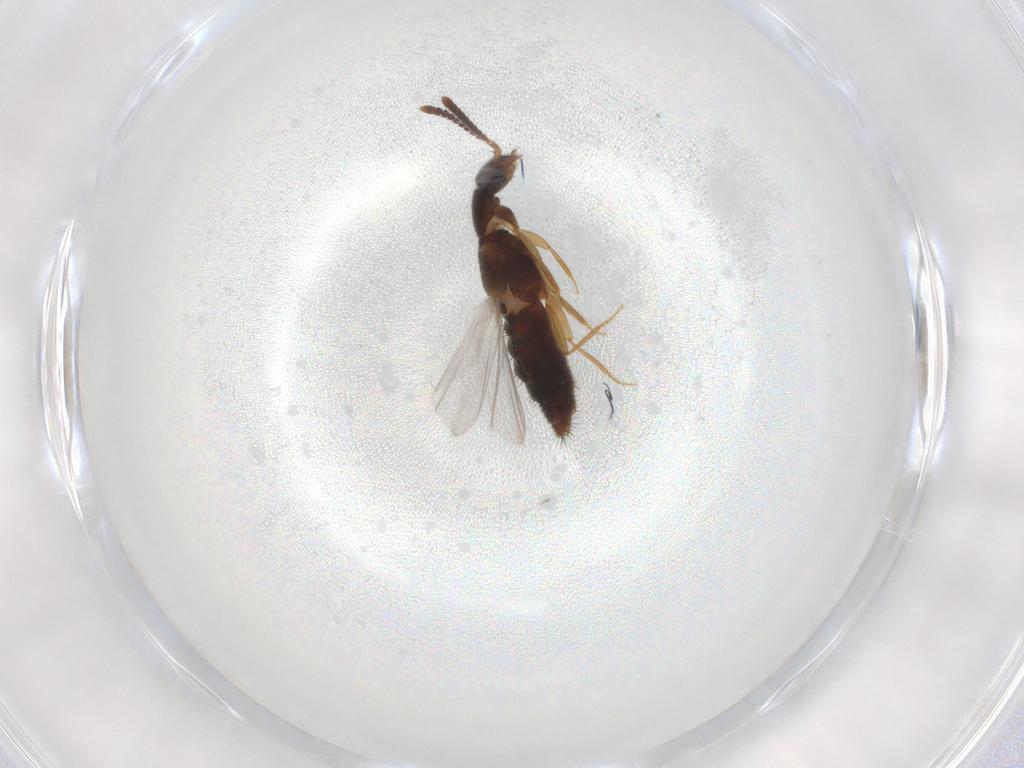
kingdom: Animalia
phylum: Arthropoda
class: Insecta
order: Coleoptera
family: Staphylinidae
